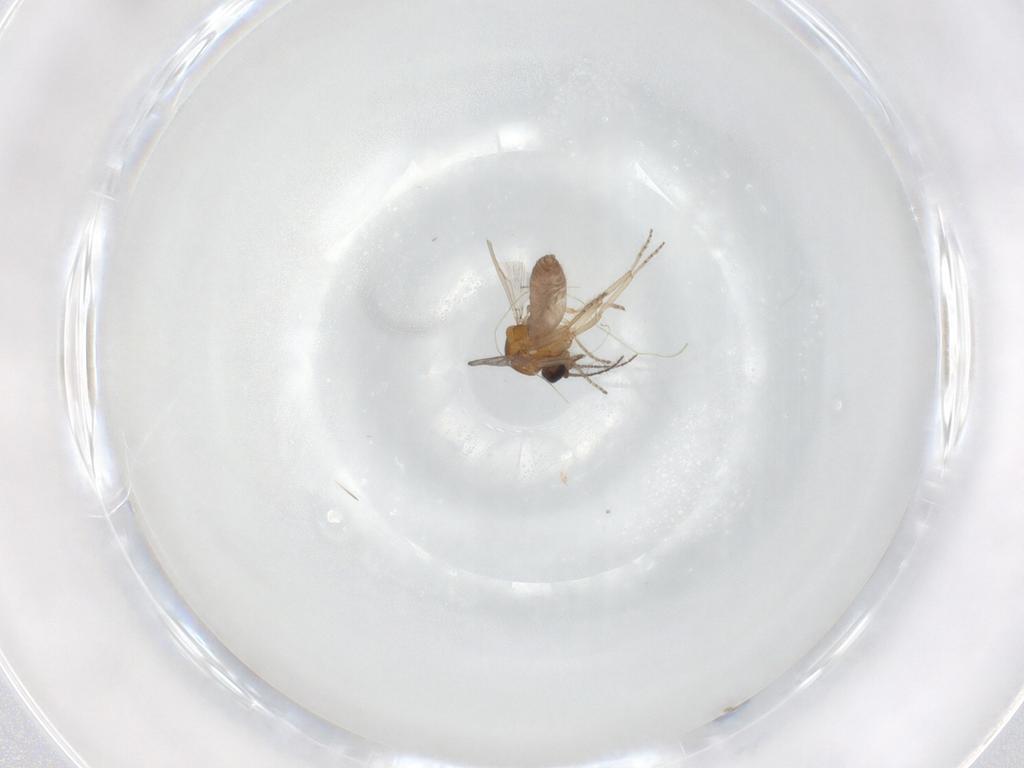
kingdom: Animalia
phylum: Arthropoda
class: Insecta
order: Diptera
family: Ceratopogonidae
